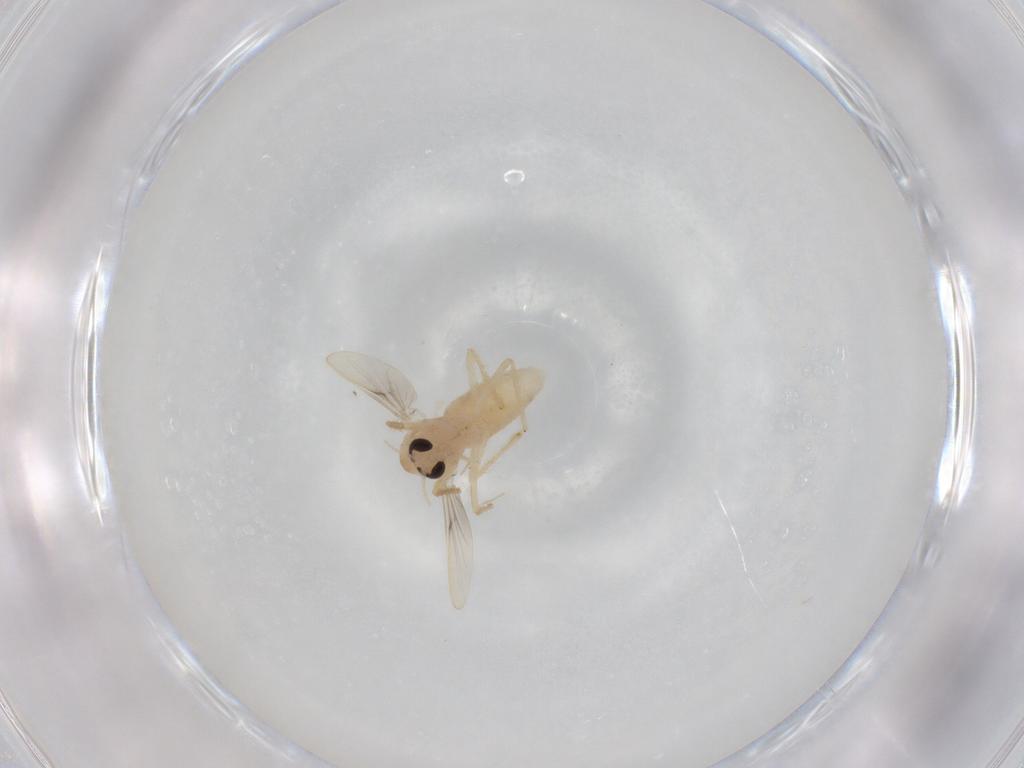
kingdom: Animalia
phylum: Arthropoda
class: Insecta
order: Diptera
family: Chironomidae
